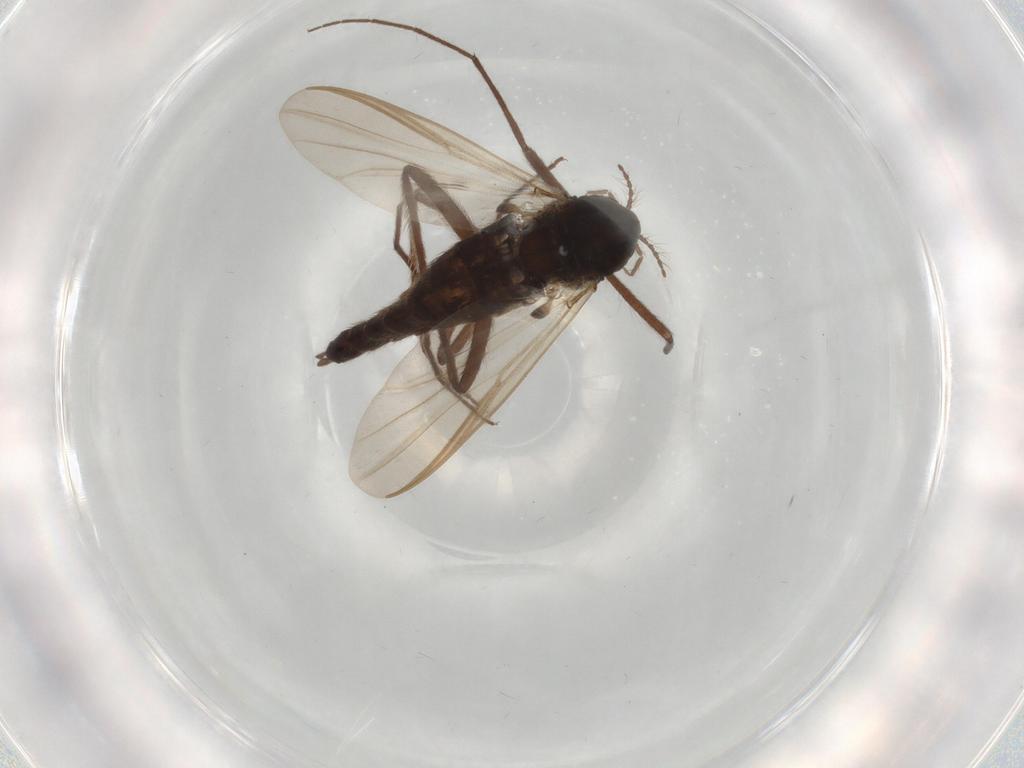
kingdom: Animalia
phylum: Arthropoda
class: Insecta
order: Diptera
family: Hybotidae
